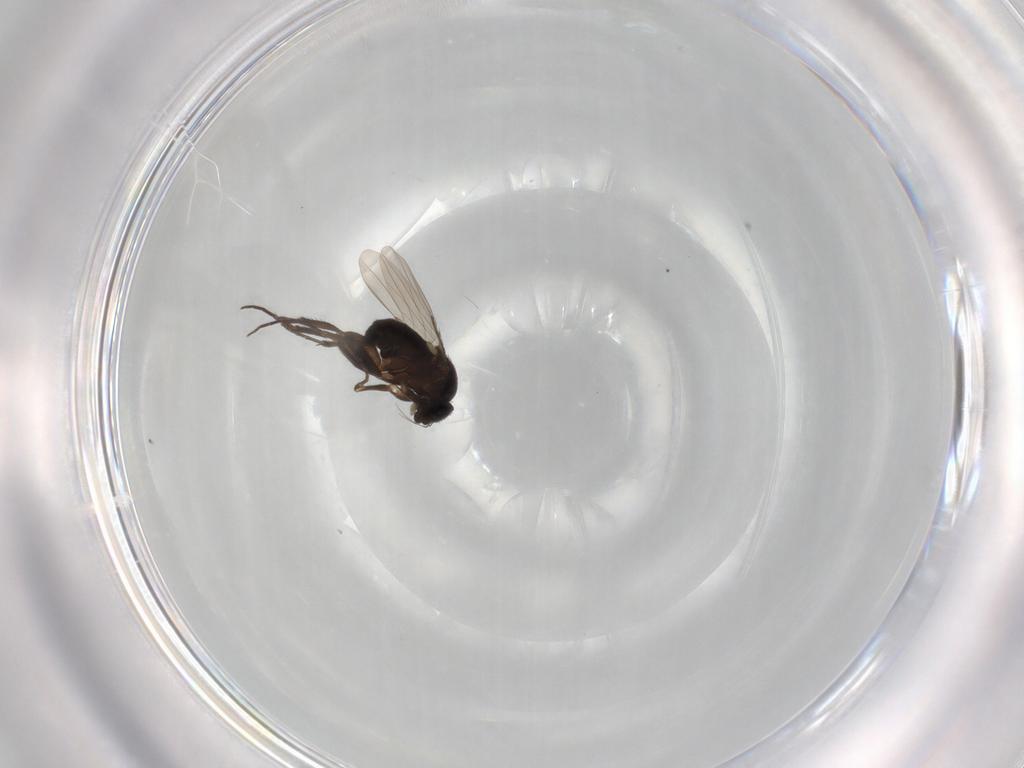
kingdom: Animalia
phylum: Arthropoda
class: Insecta
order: Diptera
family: Phoridae
